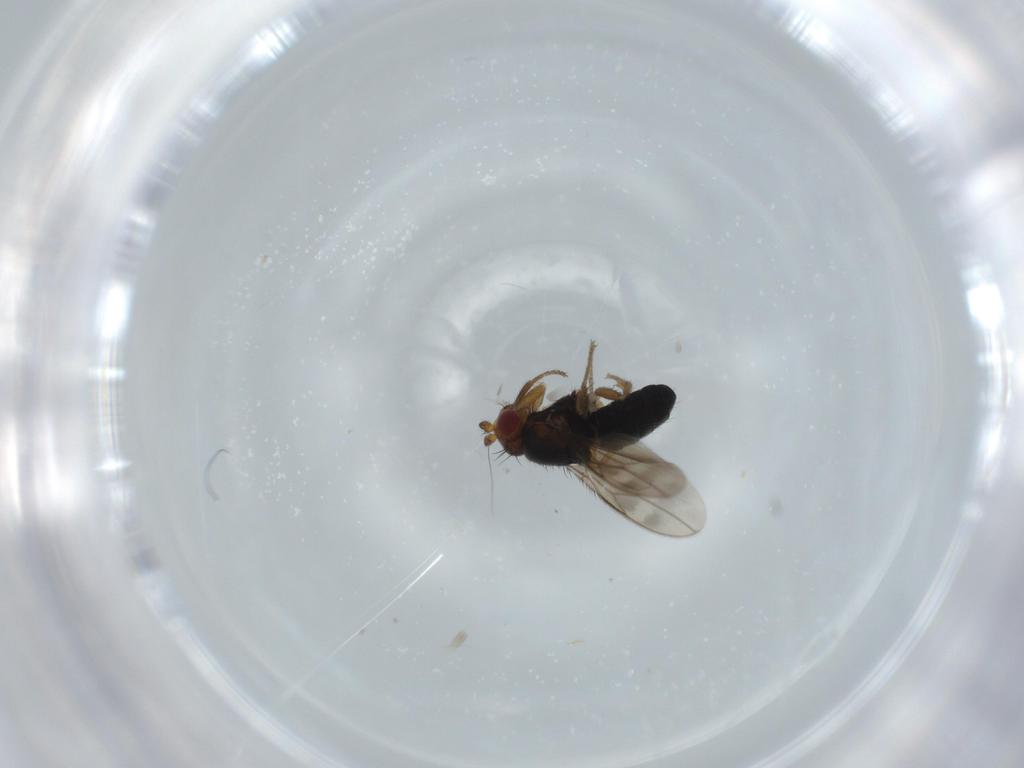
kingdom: Animalia
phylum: Arthropoda
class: Insecta
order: Diptera
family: Sphaeroceridae
